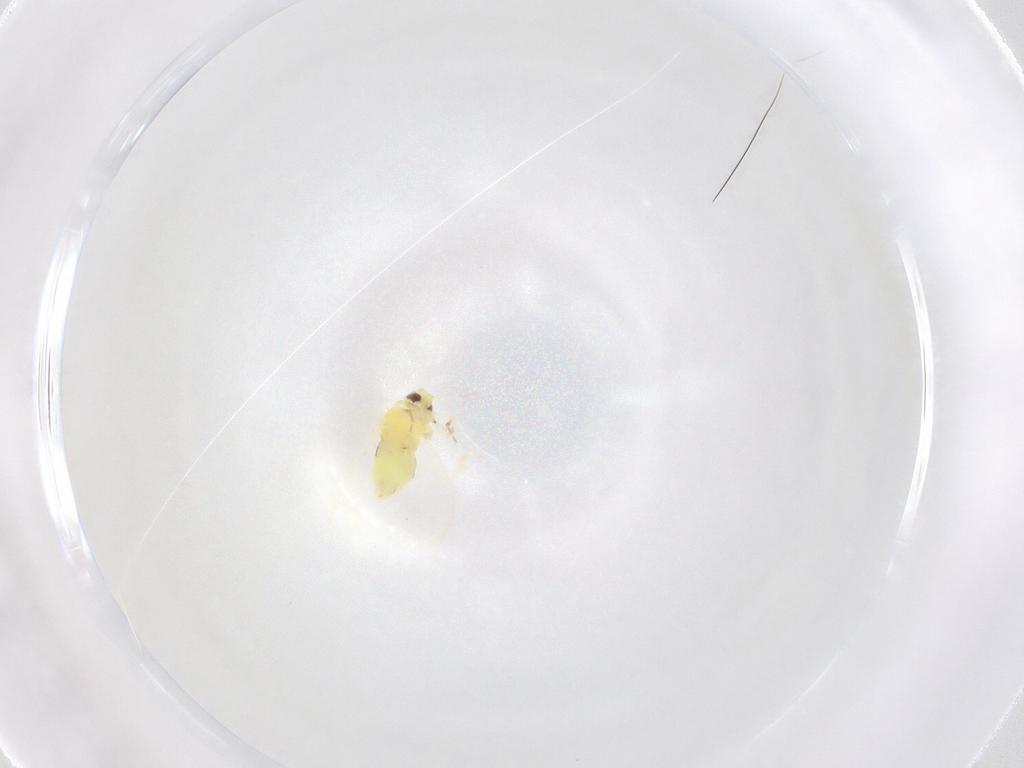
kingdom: Animalia
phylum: Arthropoda
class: Insecta
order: Hemiptera
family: Aleyrodidae
